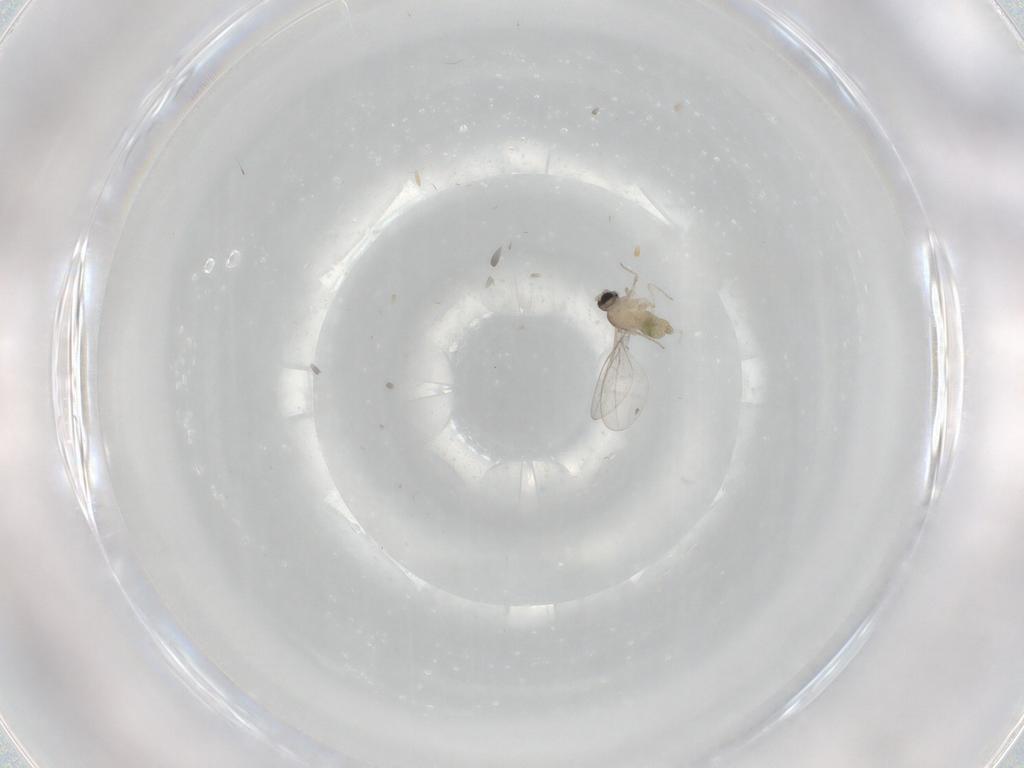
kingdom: Animalia
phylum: Arthropoda
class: Insecta
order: Diptera
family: Cecidomyiidae
